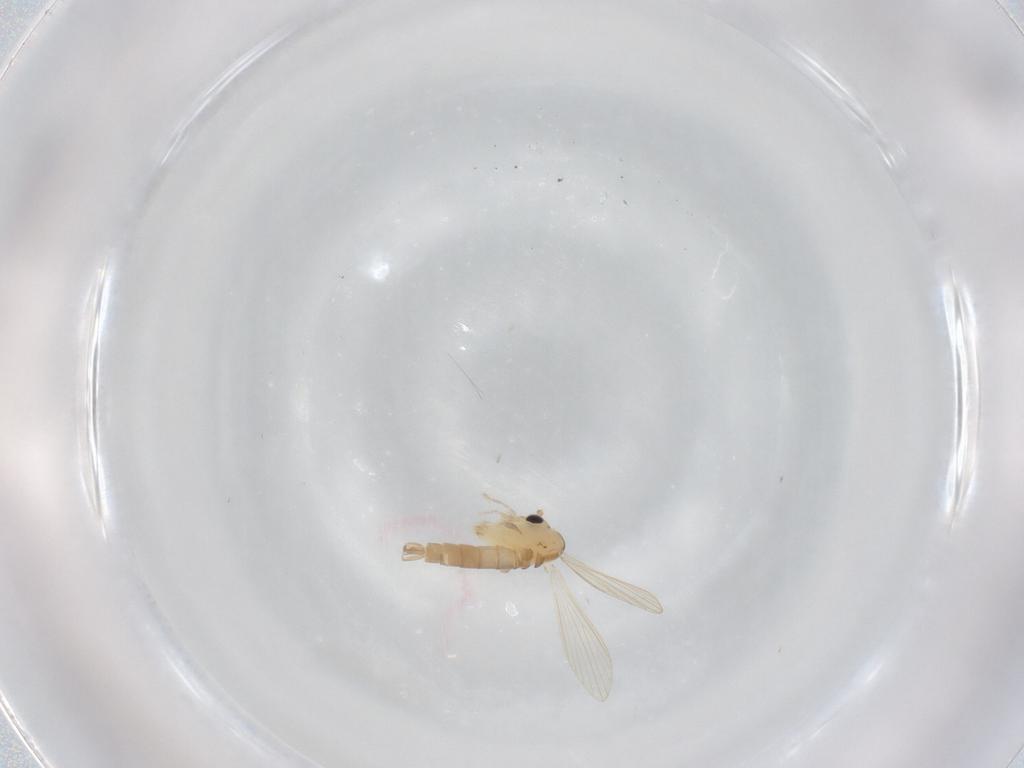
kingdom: Animalia
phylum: Arthropoda
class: Insecta
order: Diptera
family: Psychodidae
